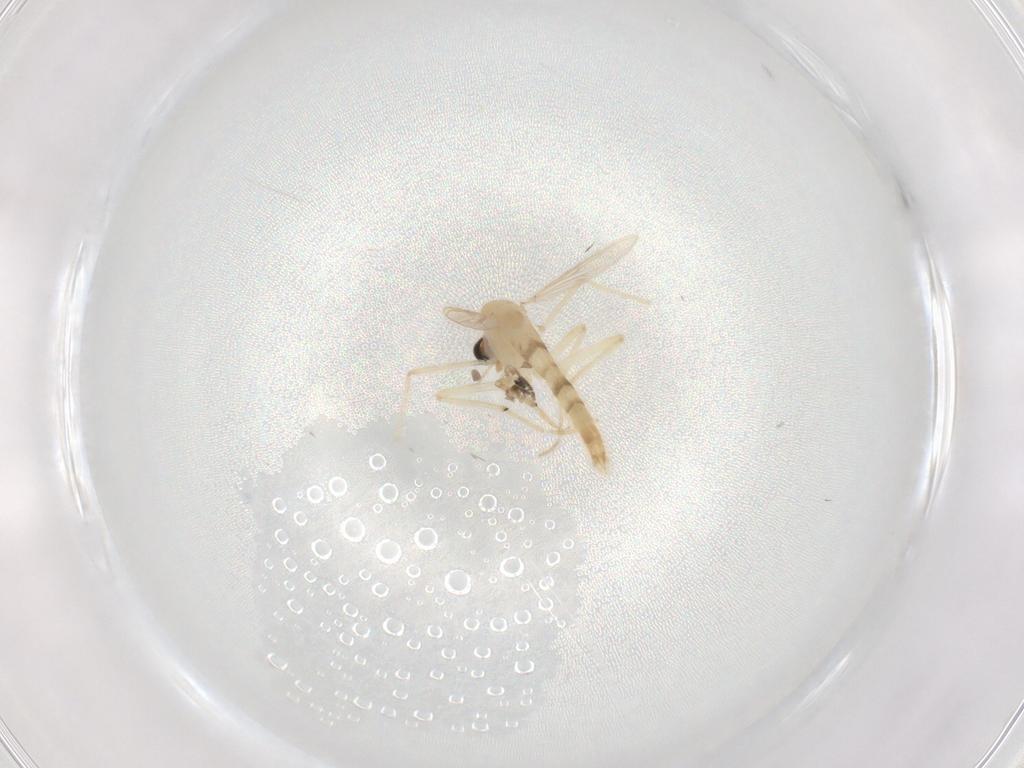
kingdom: Animalia
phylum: Arthropoda
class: Insecta
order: Diptera
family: Chironomidae
